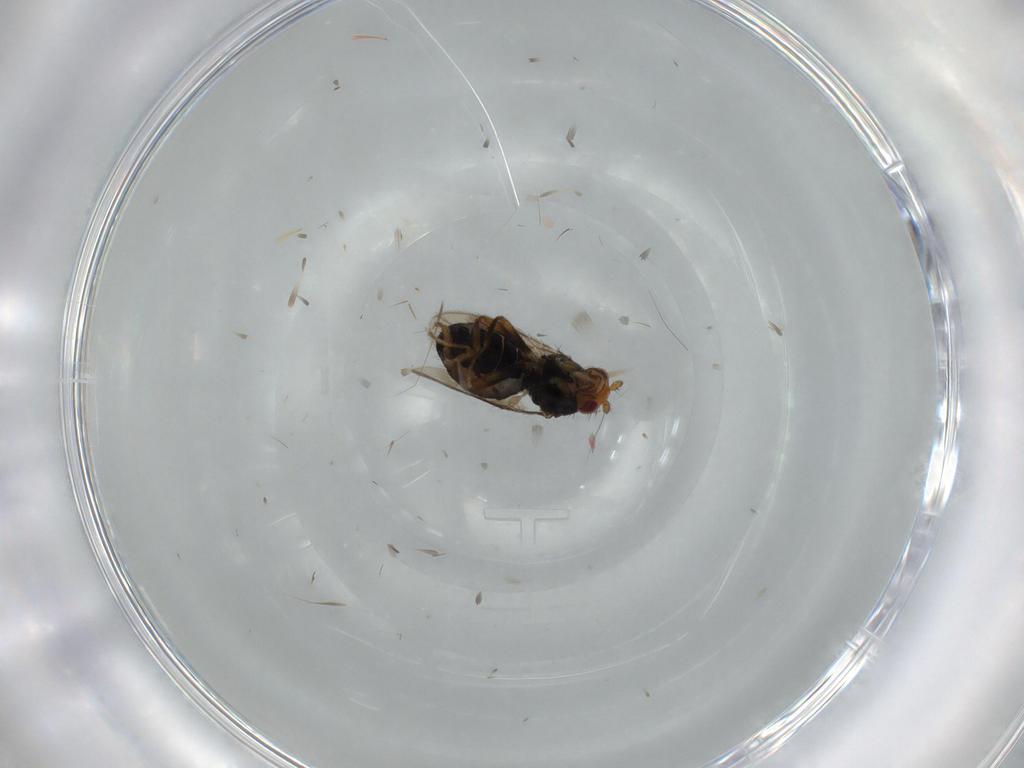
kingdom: Animalia
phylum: Arthropoda
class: Insecta
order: Diptera
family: Sphaeroceridae
